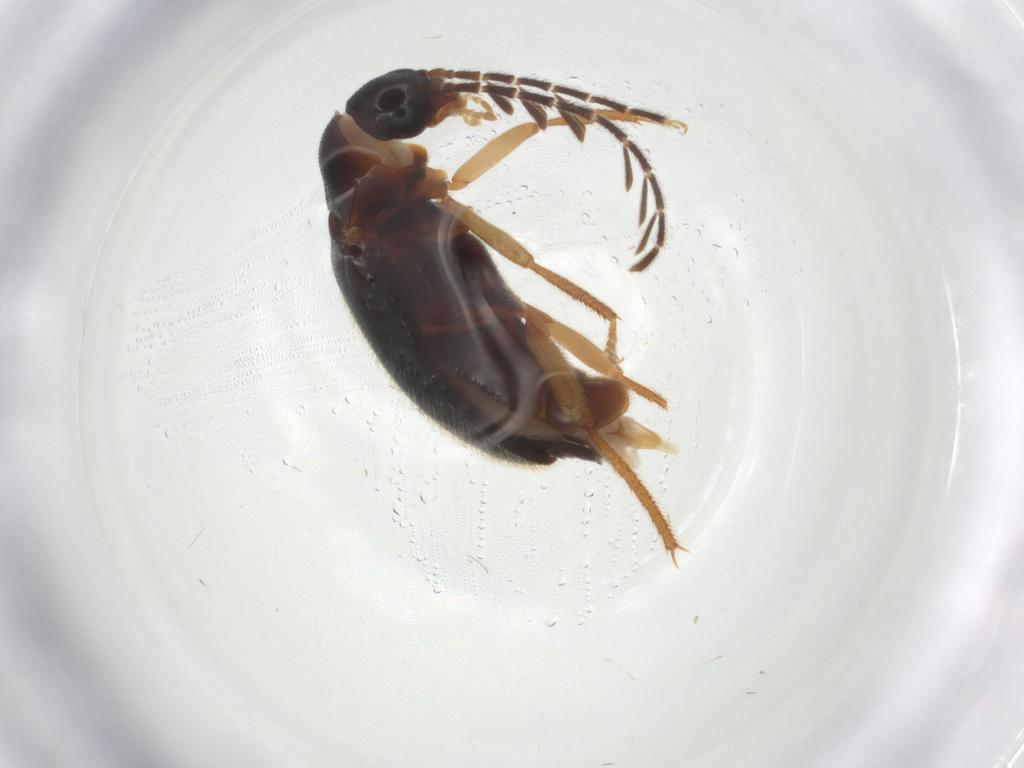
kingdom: Animalia
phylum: Arthropoda
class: Insecta
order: Coleoptera
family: Ptilodactylidae
